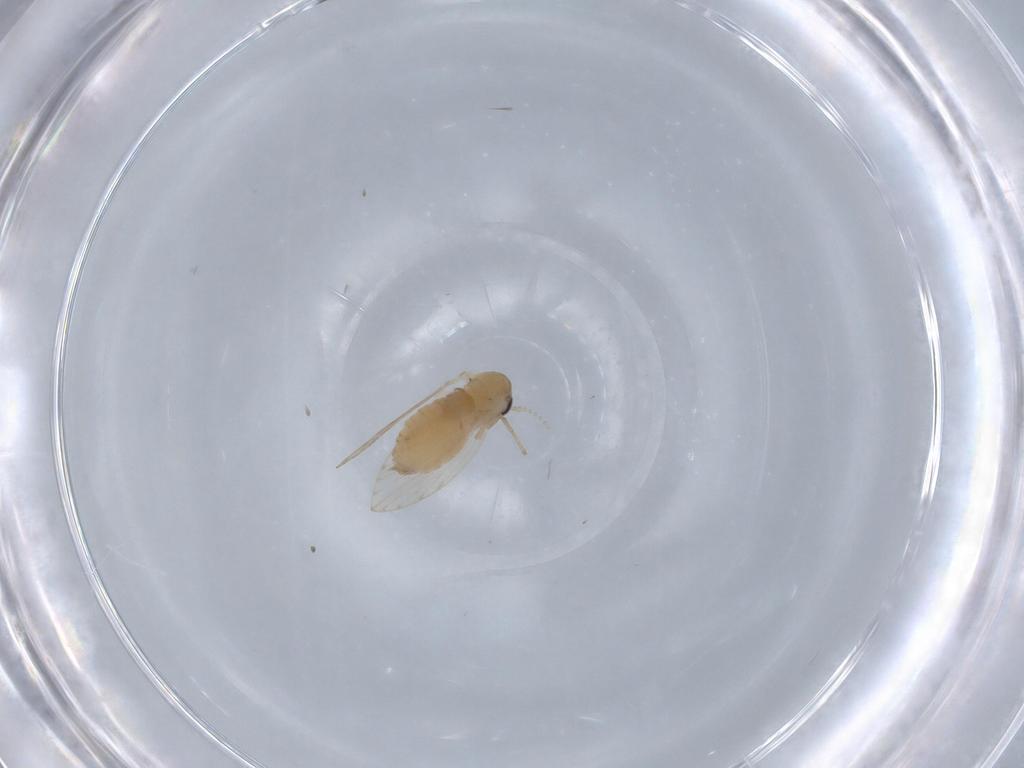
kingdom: Animalia
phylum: Arthropoda
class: Insecta
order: Diptera
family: Psychodidae
